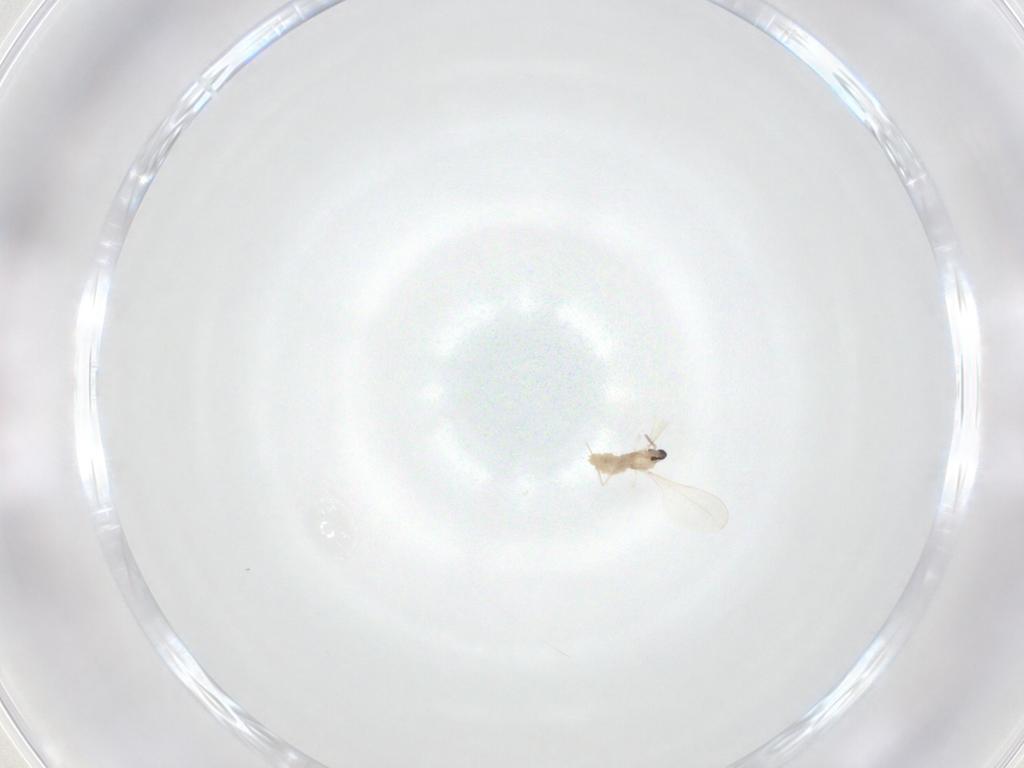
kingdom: Animalia
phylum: Arthropoda
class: Insecta
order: Diptera
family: Cecidomyiidae
